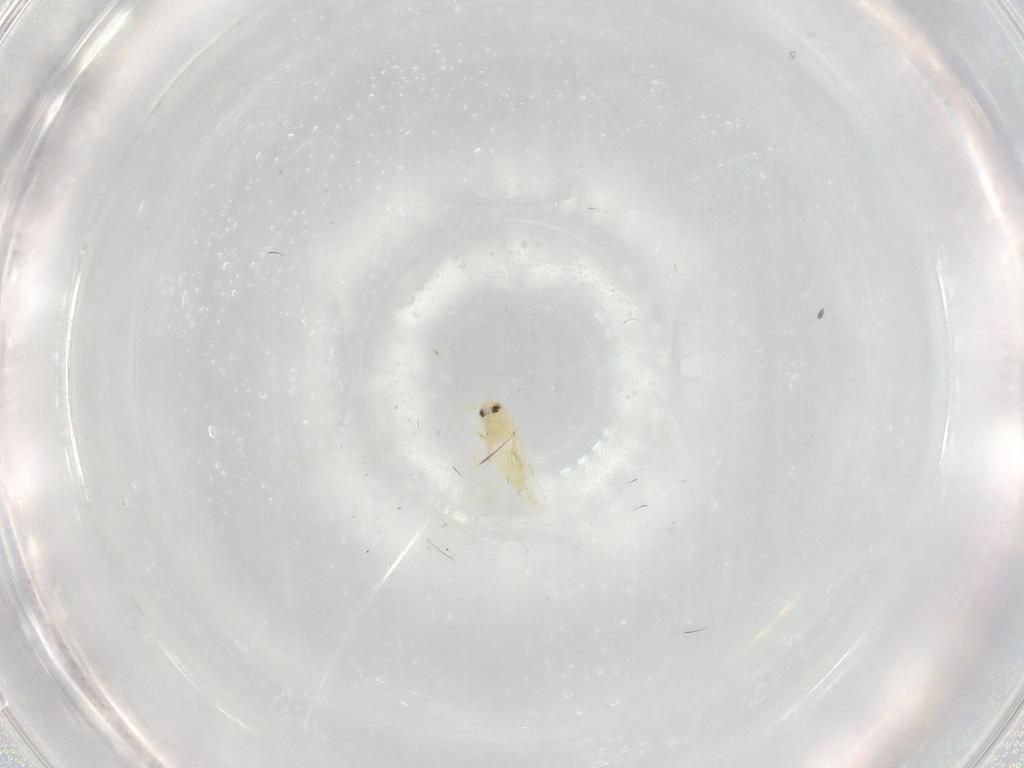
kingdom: Animalia
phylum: Arthropoda
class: Insecta
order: Hemiptera
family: Aleyrodidae
